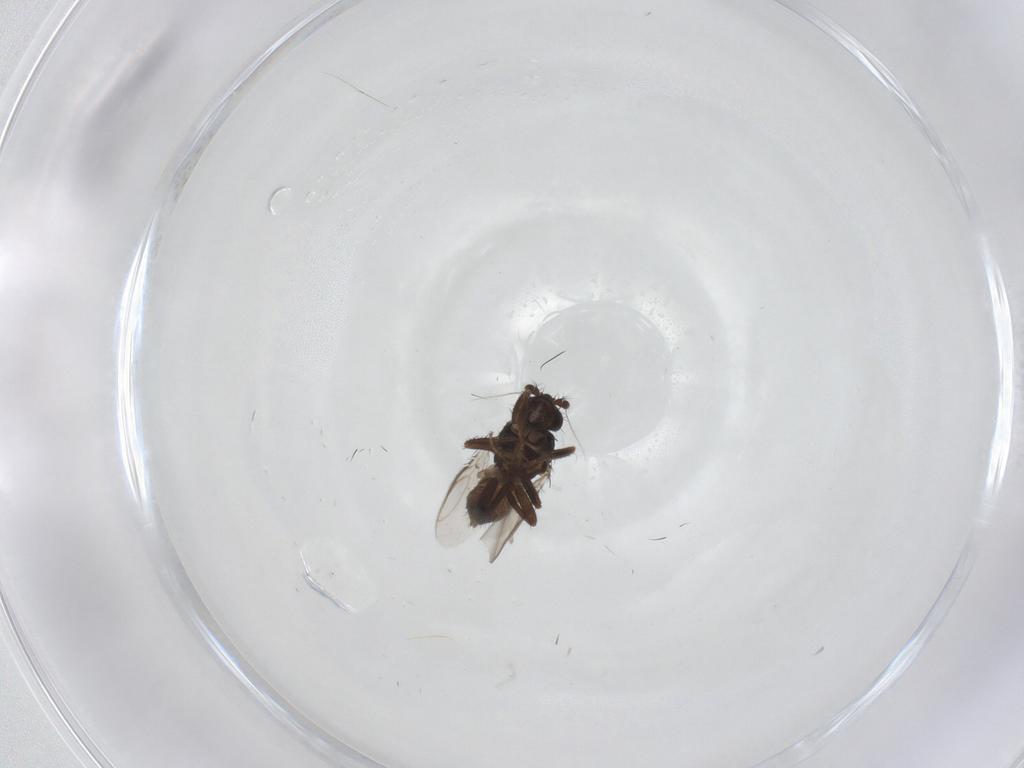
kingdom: Animalia
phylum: Arthropoda
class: Insecta
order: Diptera
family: Sphaeroceridae
